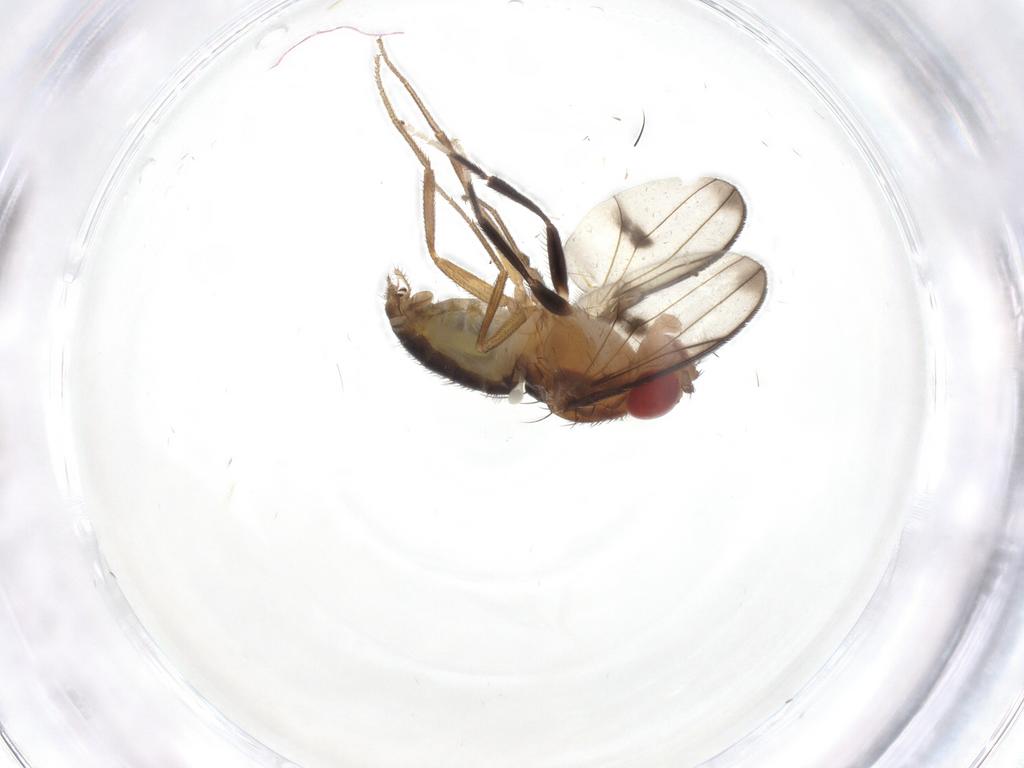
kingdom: Animalia
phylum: Arthropoda
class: Insecta
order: Diptera
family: Drosophilidae
